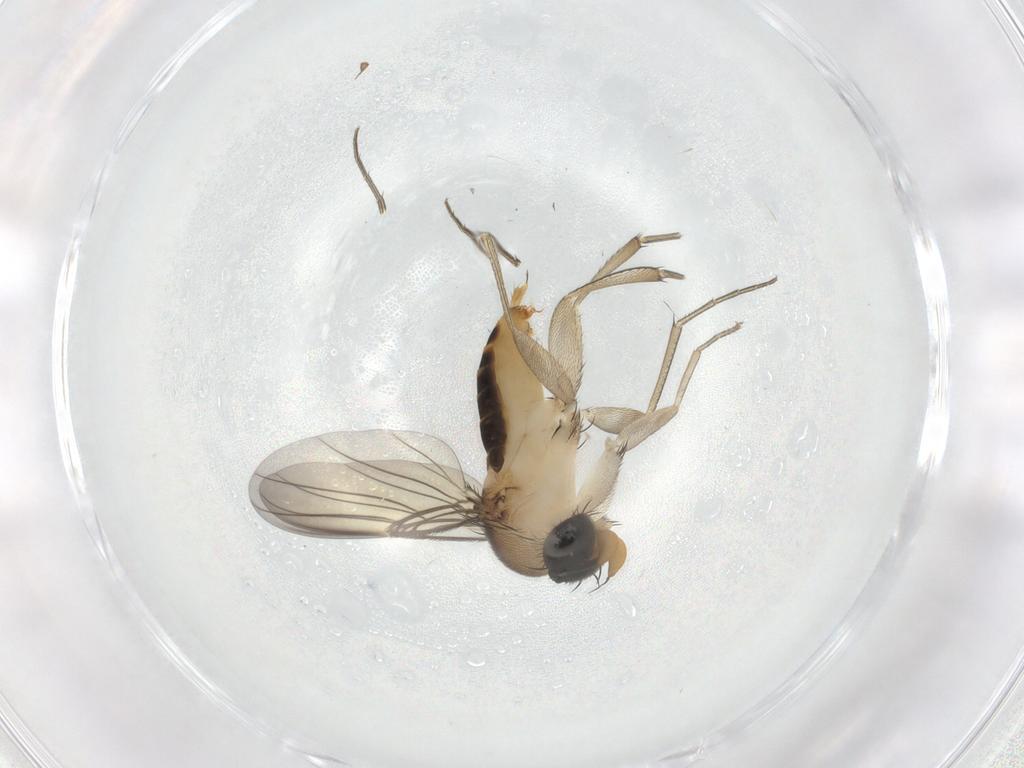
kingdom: Animalia
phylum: Arthropoda
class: Insecta
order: Diptera
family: Phoridae
